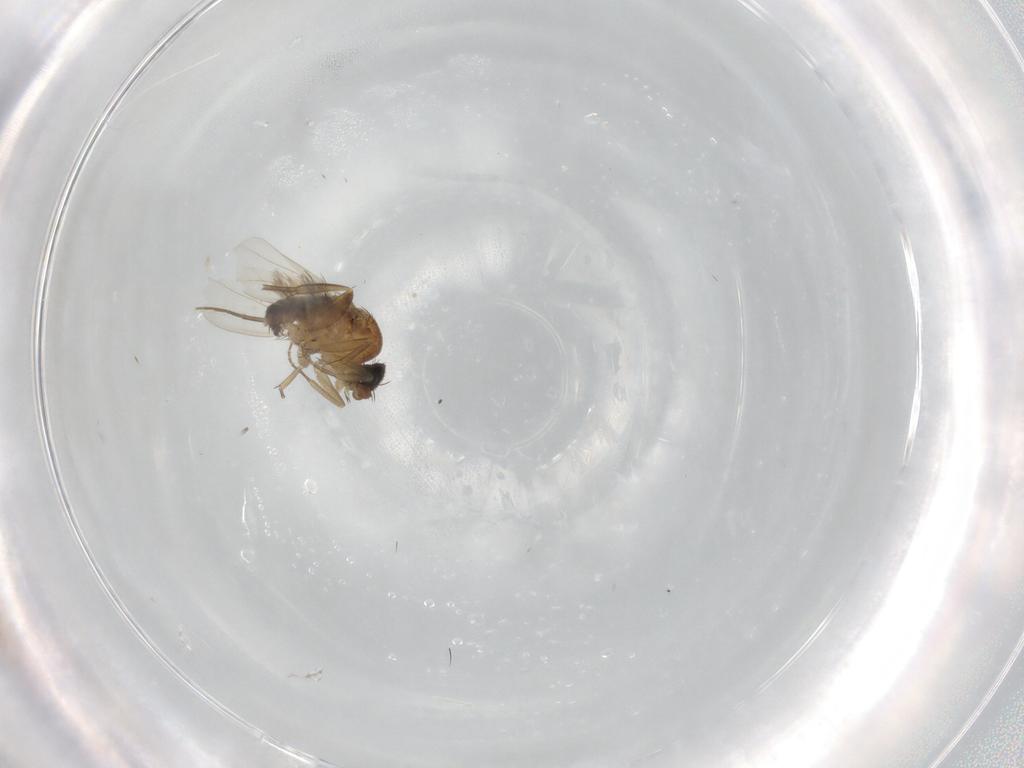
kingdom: Animalia
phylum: Arthropoda
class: Insecta
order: Diptera
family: Phoridae
